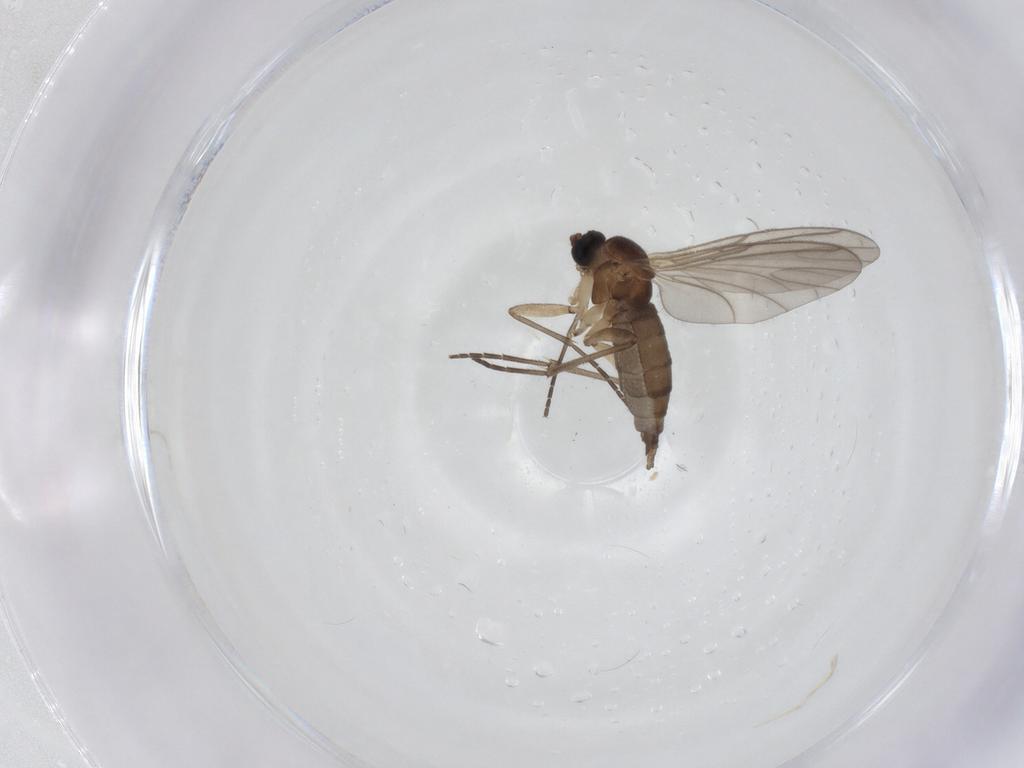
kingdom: Animalia
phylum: Arthropoda
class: Insecta
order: Diptera
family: Sciaridae
